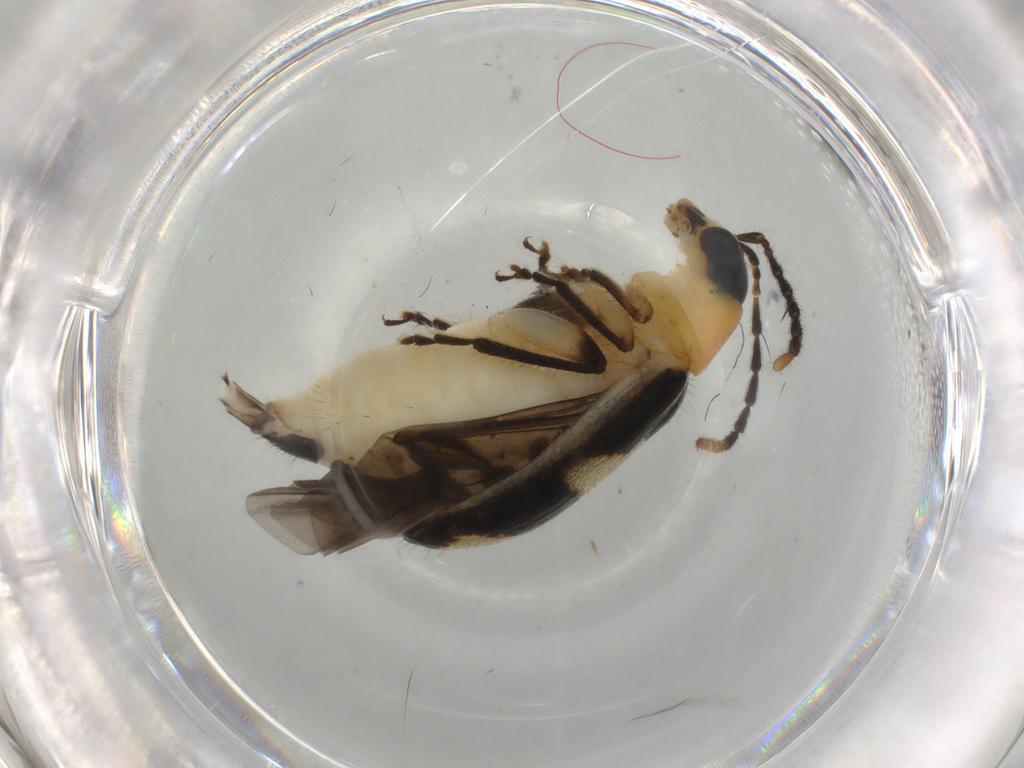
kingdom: Animalia
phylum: Arthropoda
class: Insecta
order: Coleoptera
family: Chrysomelidae
